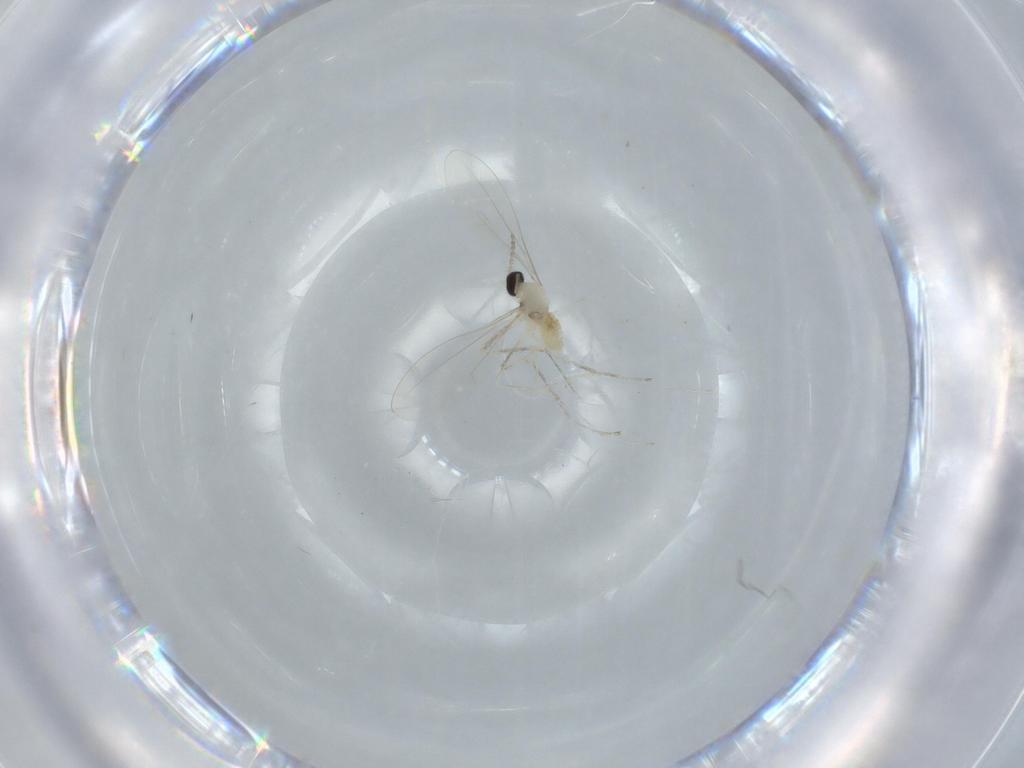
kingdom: Animalia
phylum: Arthropoda
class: Insecta
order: Diptera
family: Cecidomyiidae
